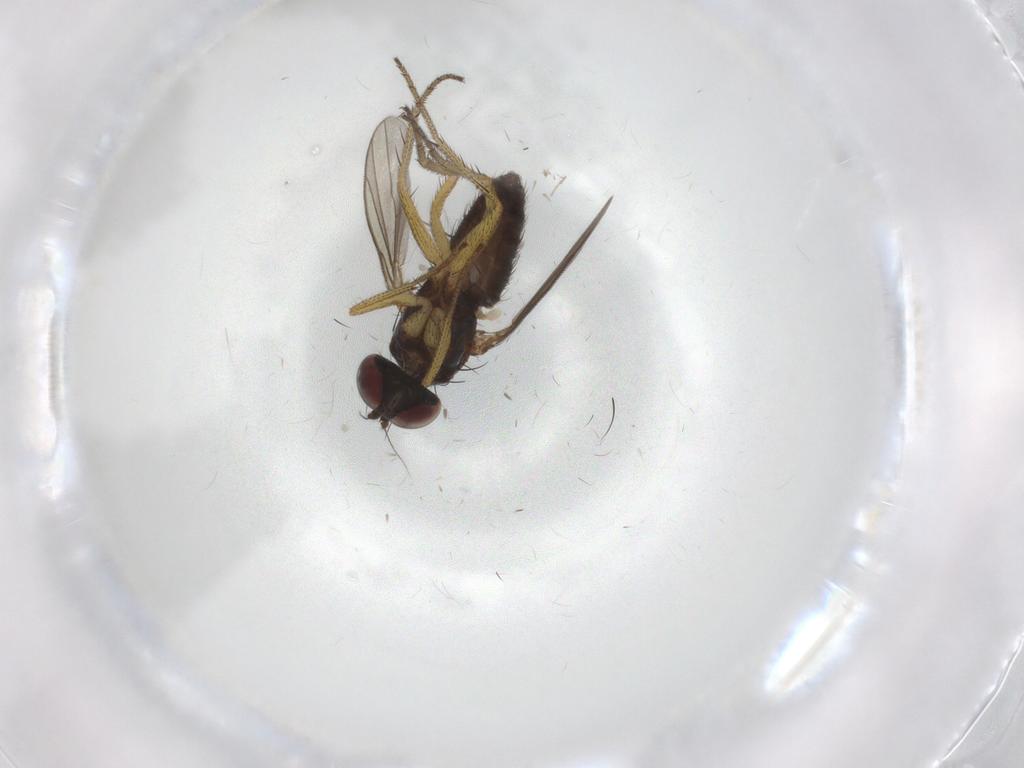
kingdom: Animalia
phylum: Arthropoda
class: Insecta
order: Diptera
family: Chironomidae
